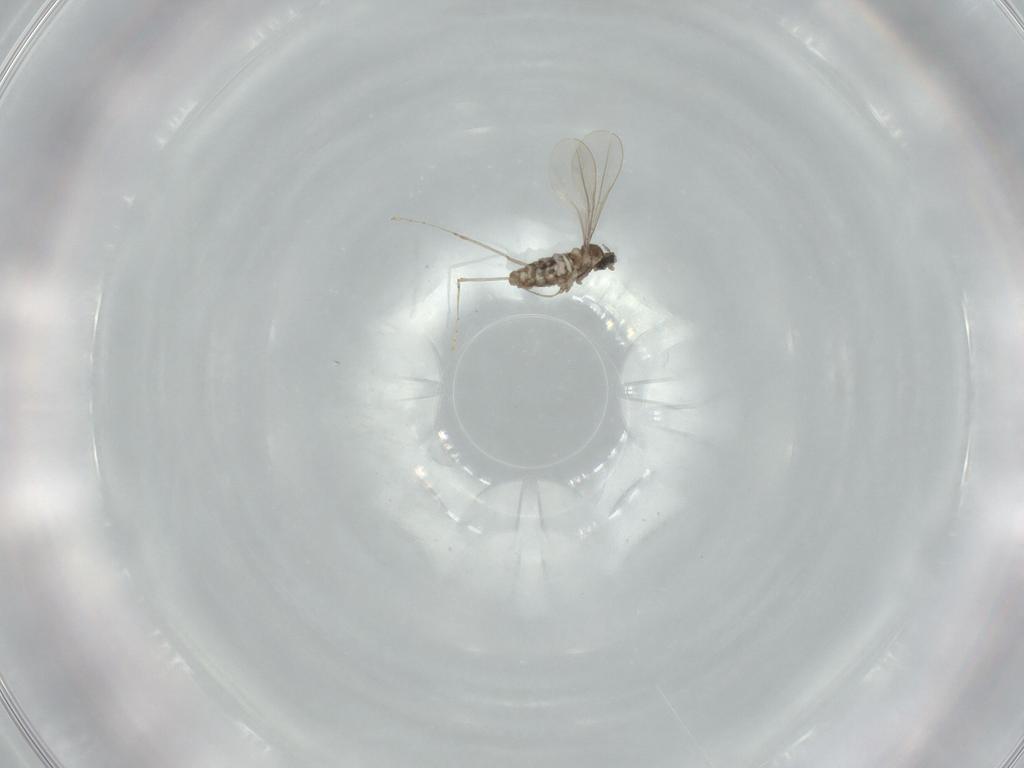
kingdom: Animalia
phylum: Arthropoda
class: Insecta
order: Diptera
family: Cecidomyiidae
